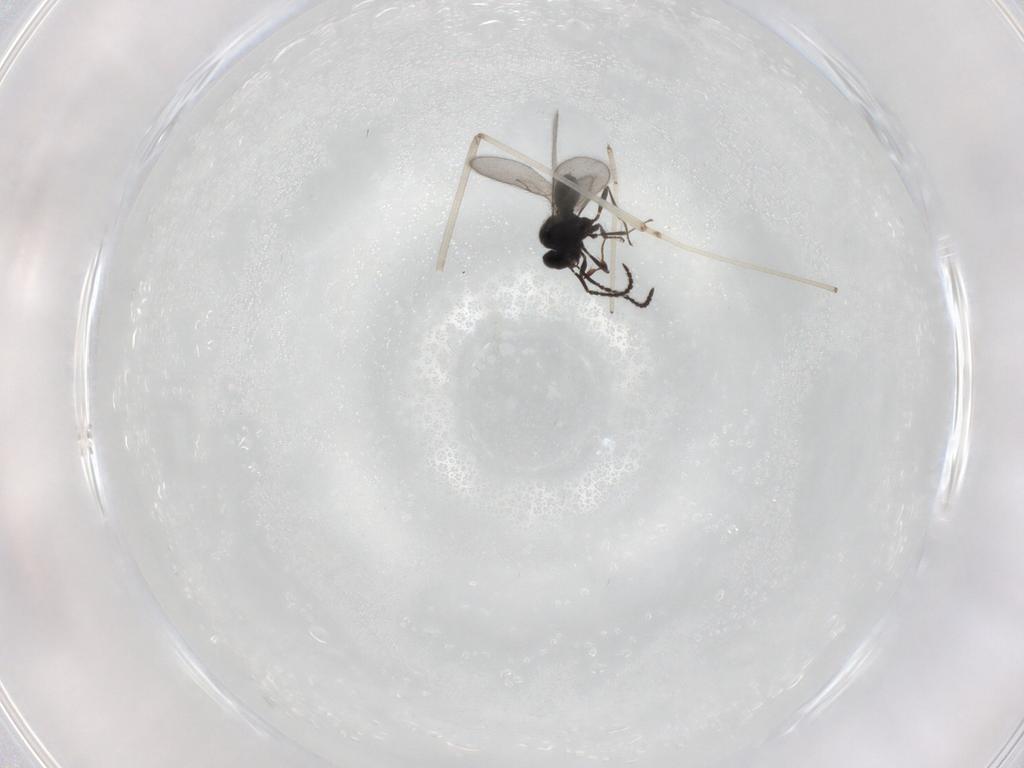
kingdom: Animalia
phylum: Arthropoda
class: Insecta
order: Hymenoptera
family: Scelionidae
